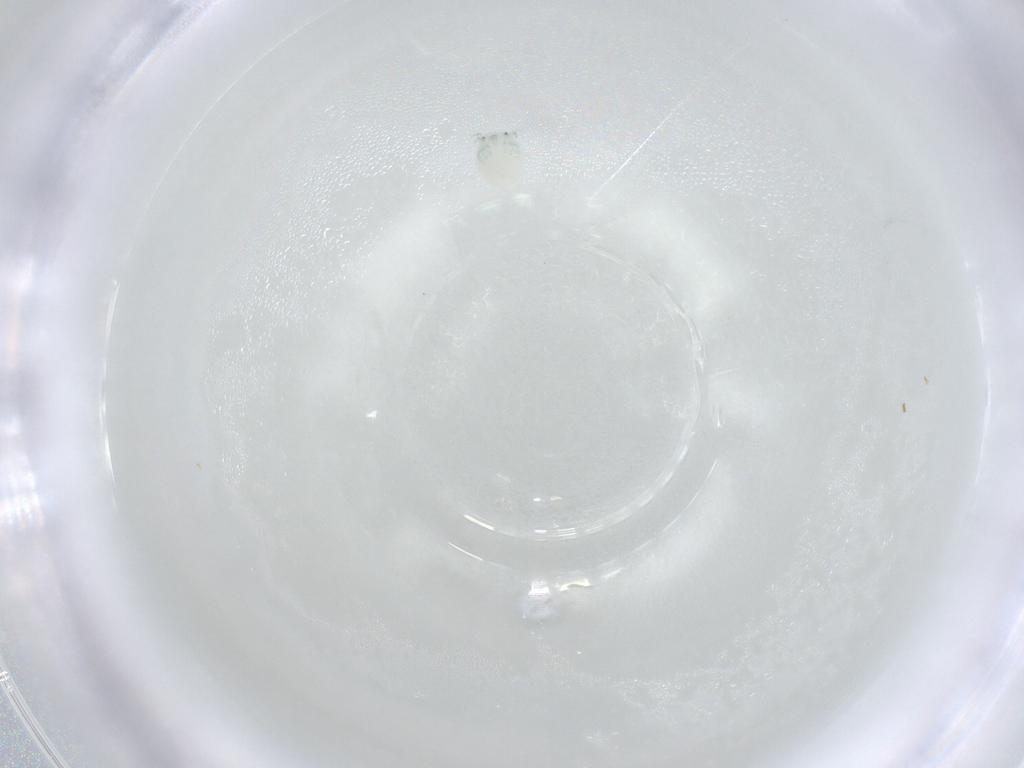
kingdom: Animalia
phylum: Arthropoda
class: Arachnida
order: Trombidiformes
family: Arrenuridae
